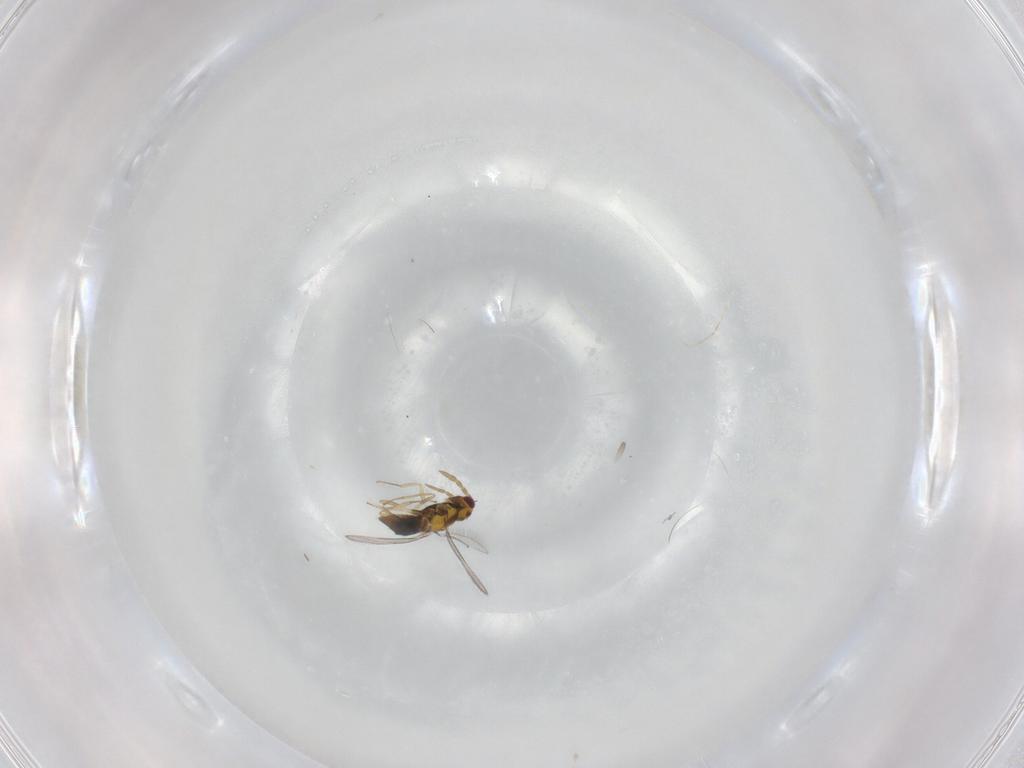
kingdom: Animalia
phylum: Arthropoda
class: Insecta
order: Hymenoptera
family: Aphelinidae
